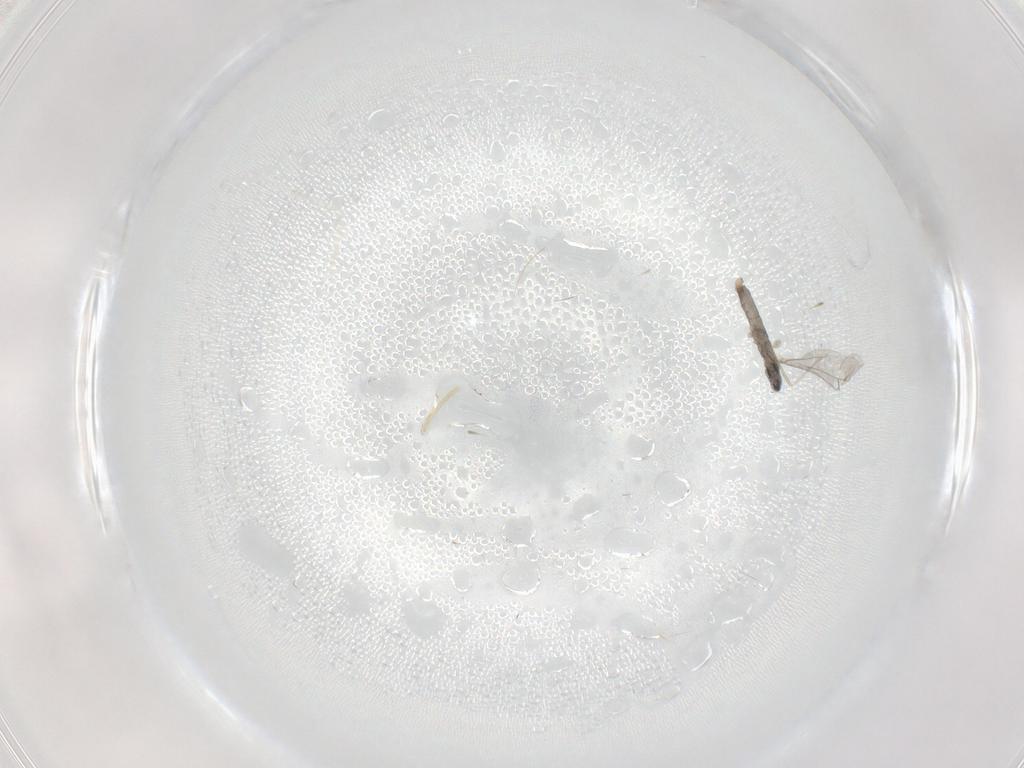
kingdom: Animalia
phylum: Arthropoda
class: Insecta
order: Diptera
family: Cecidomyiidae
